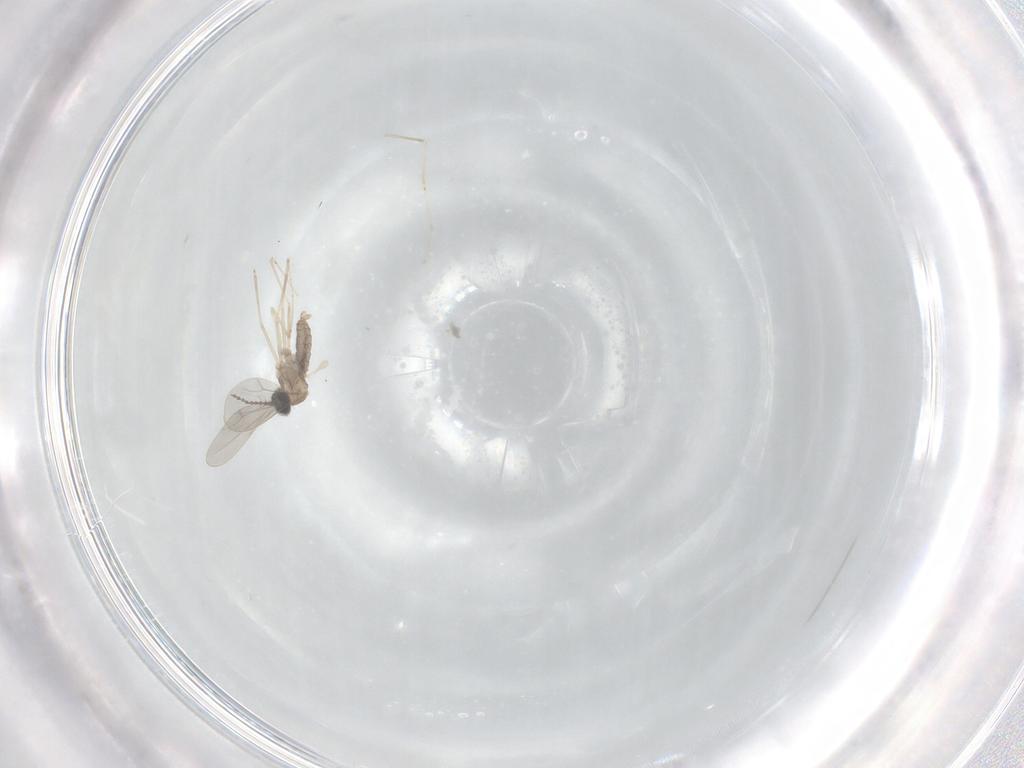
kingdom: Animalia
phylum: Arthropoda
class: Insecta
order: Diptera
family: Cecidomyiidae
